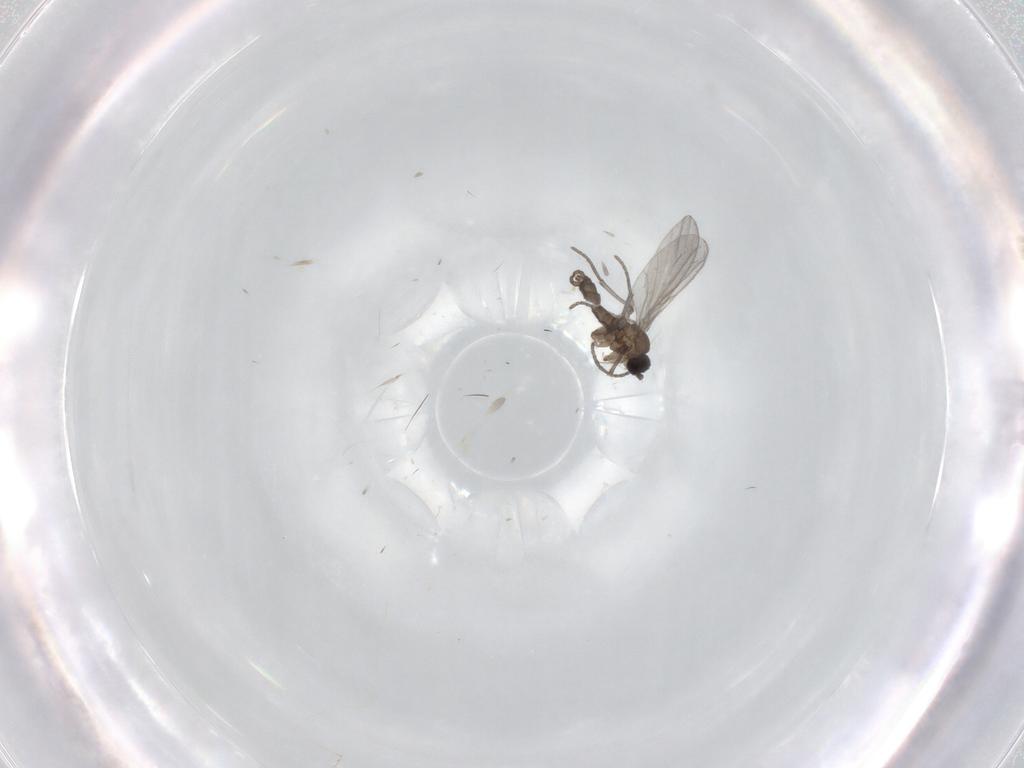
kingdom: Animalia
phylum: Arthropoda
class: Insecta
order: Diptera
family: Sciaridae
